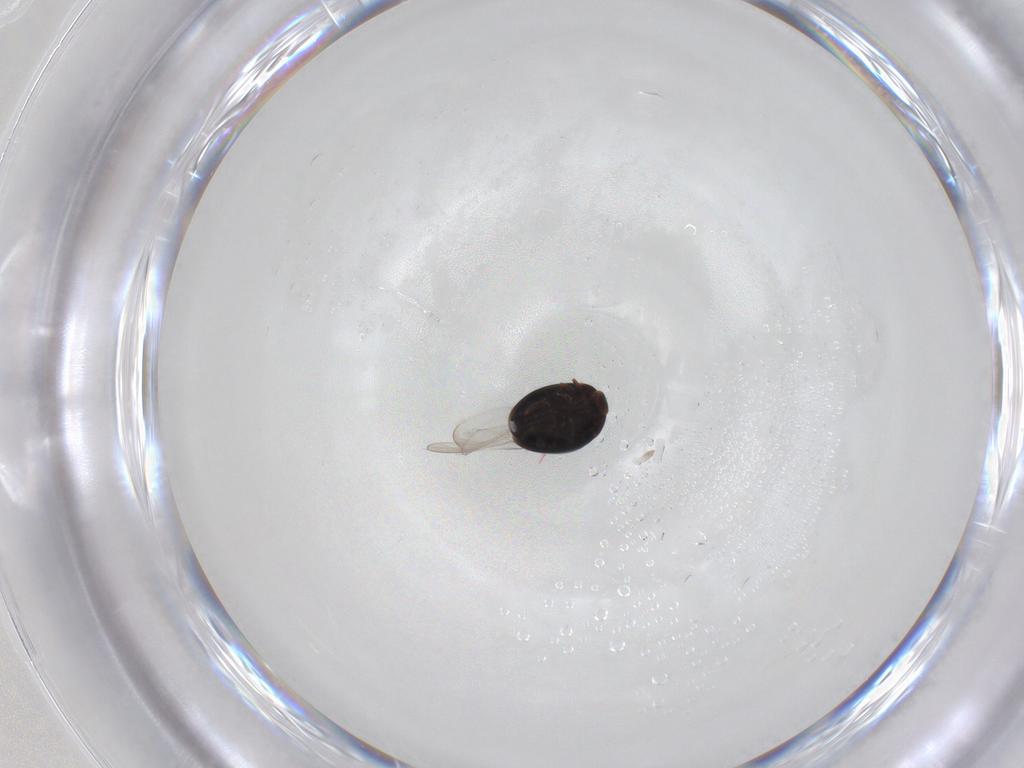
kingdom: Animalia
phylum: Arthropoda
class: Insecta
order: Coleoptera
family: Corylophidae
